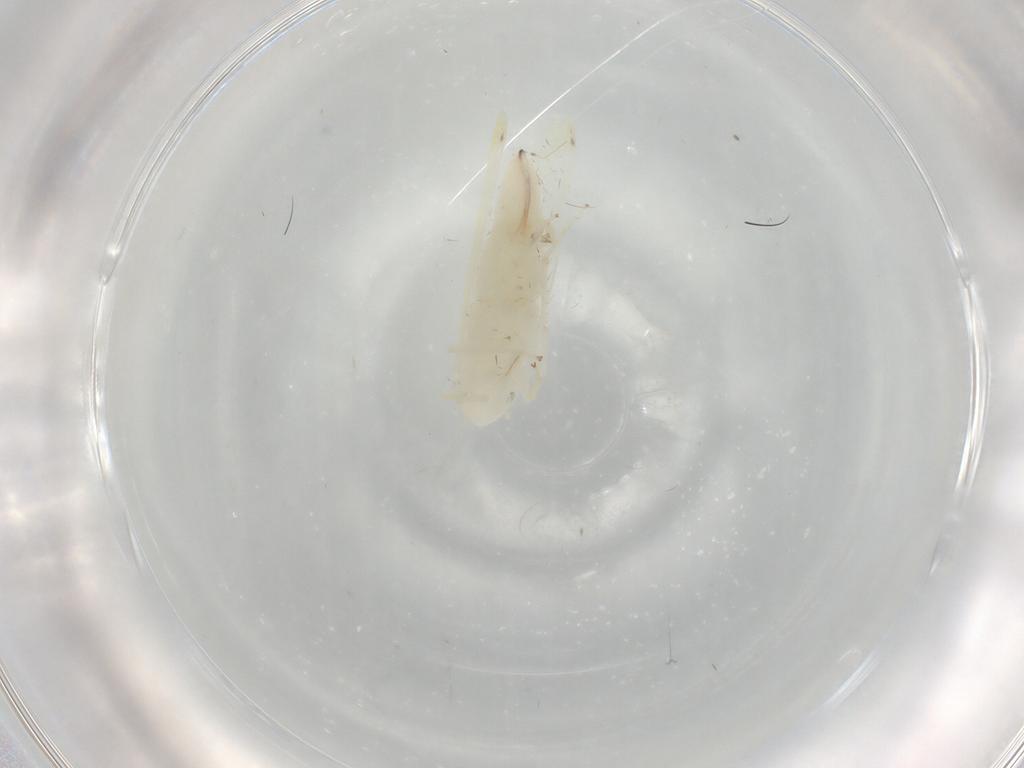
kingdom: Animalia
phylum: Arthropoda
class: Insecta
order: Hemiptera
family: Cicadellidae
